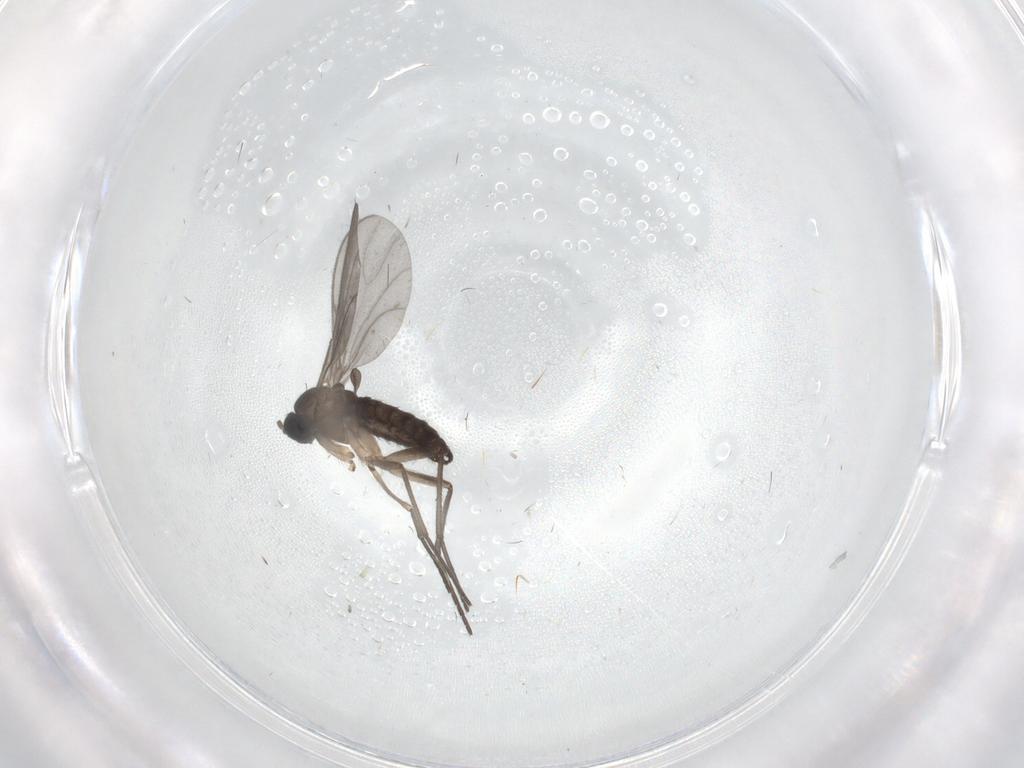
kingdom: Animalia
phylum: Arthropoda
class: Insecta
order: Diptera
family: Sciaridae
